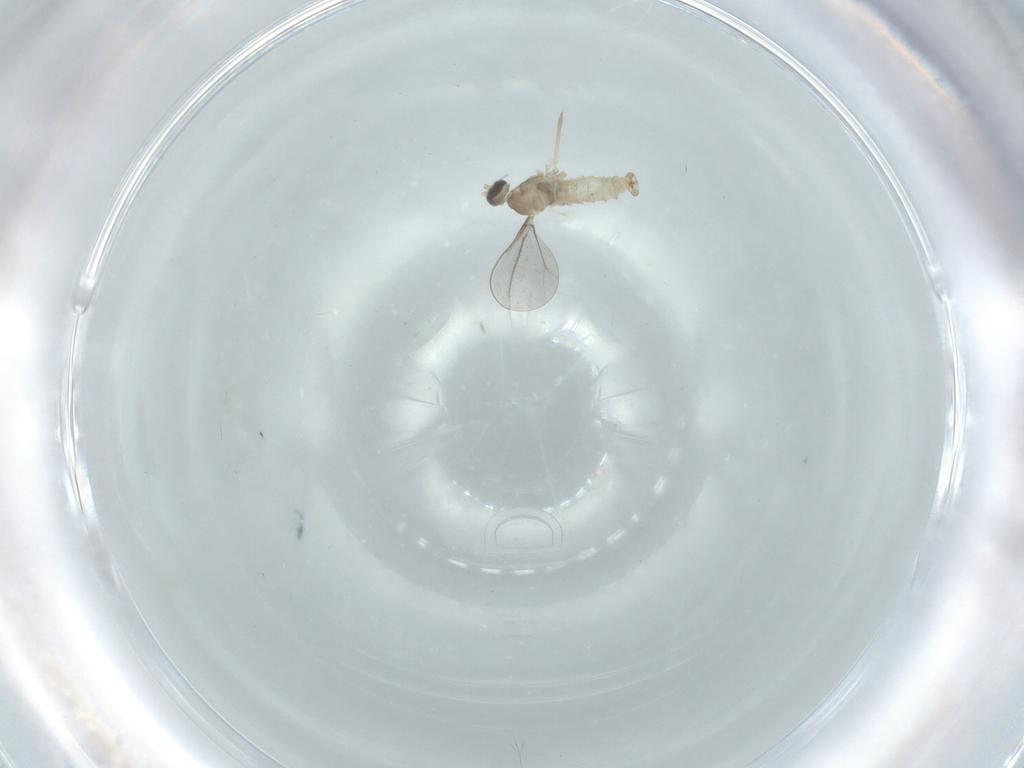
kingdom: Animalia
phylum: Arthropoda
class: Insecta
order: Diptera
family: Cecidomyiidae
